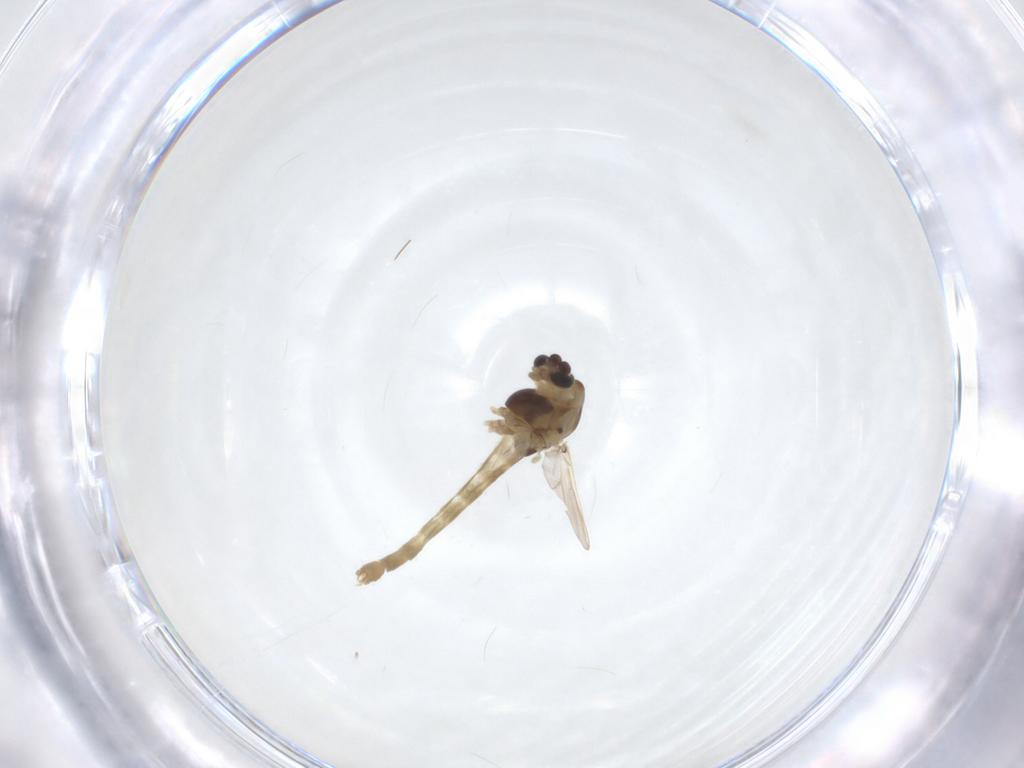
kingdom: Animalia
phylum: Arthropoda
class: Insecta
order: Diptera
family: Chironomidae
